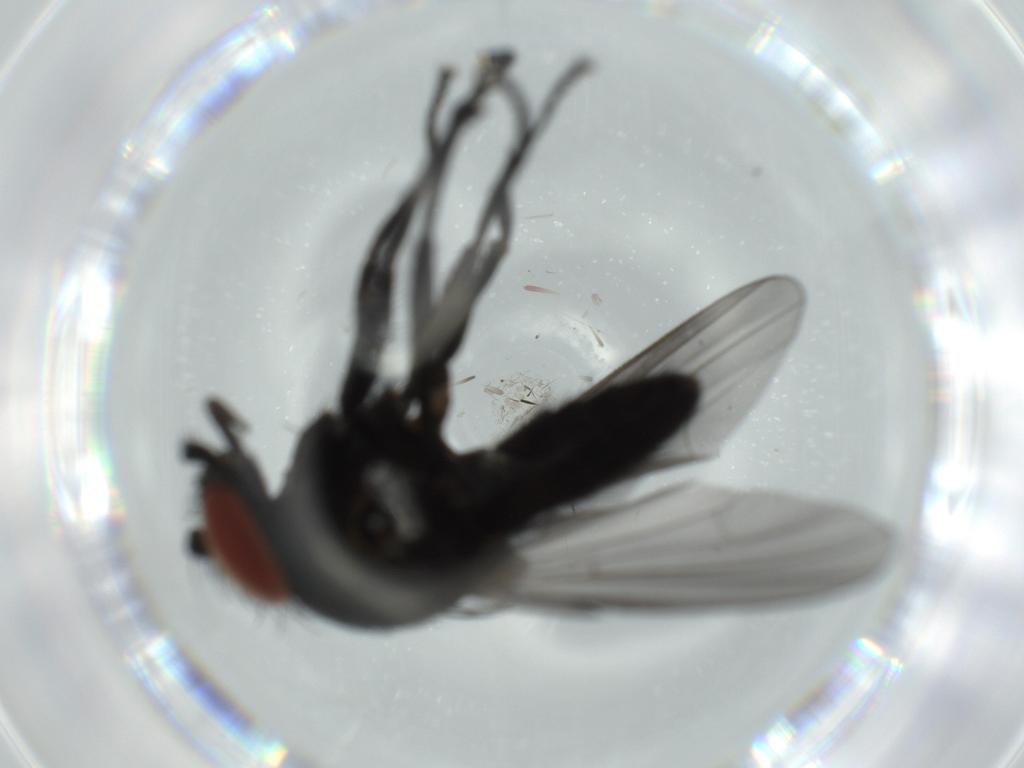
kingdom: Animalia
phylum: Arthropoda
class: Insecta
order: Diptera
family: Milichiidae
